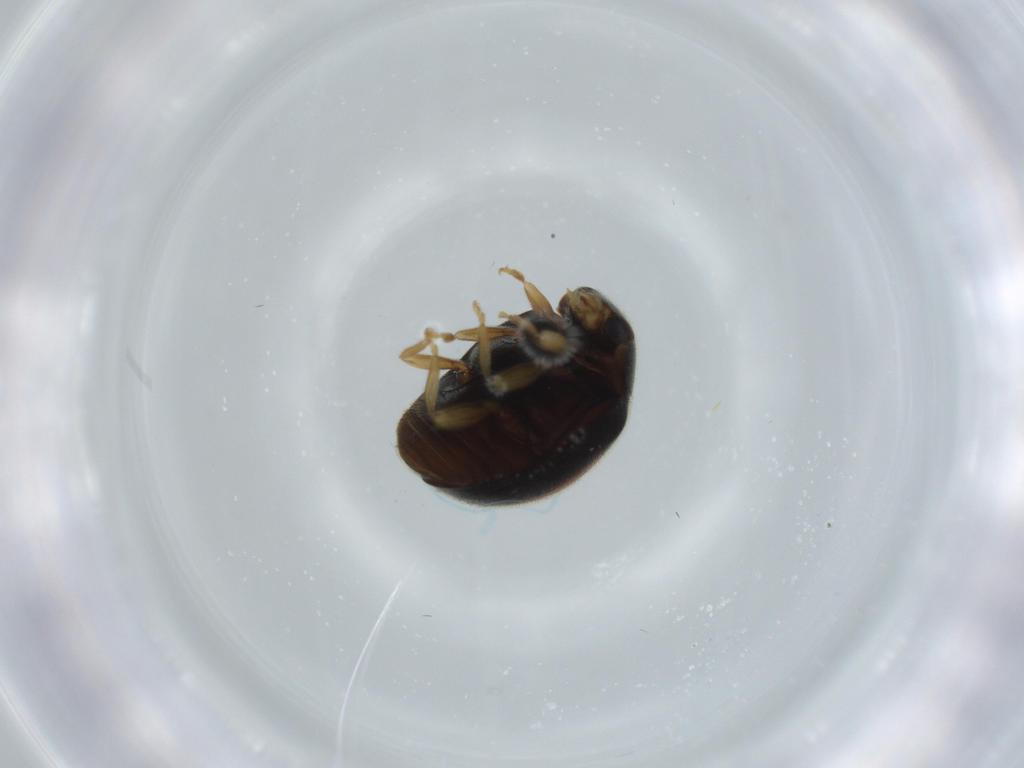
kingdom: Animalia
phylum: Arthropoda
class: Insecta
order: Coleoptera
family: Coccinellidae
